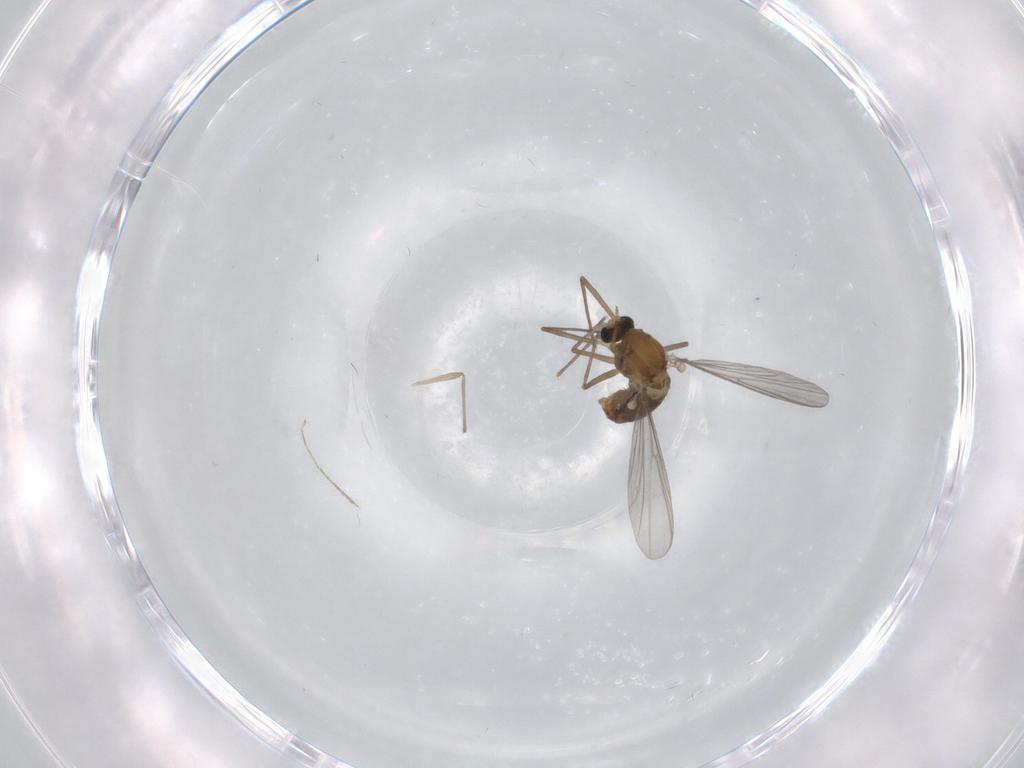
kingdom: Animalia
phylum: Arthropoda
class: Insecta
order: Diptera
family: Chironomidae
